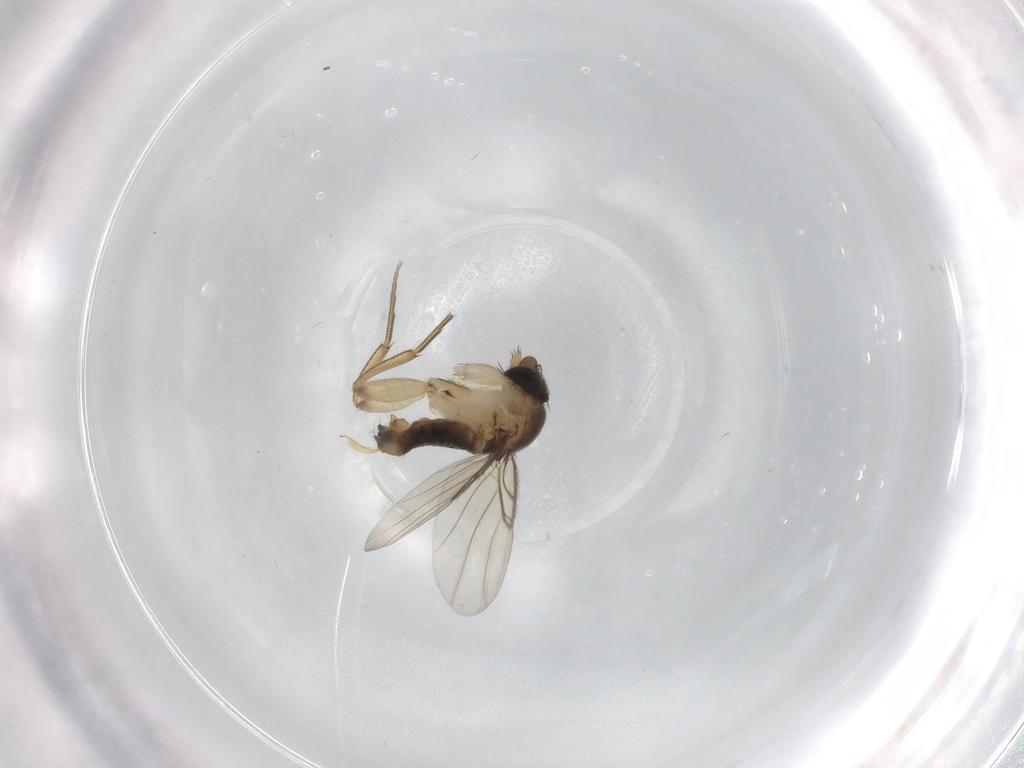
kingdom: Animalia
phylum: Arthropoda
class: Insecta
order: Diptera
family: Phoridae
